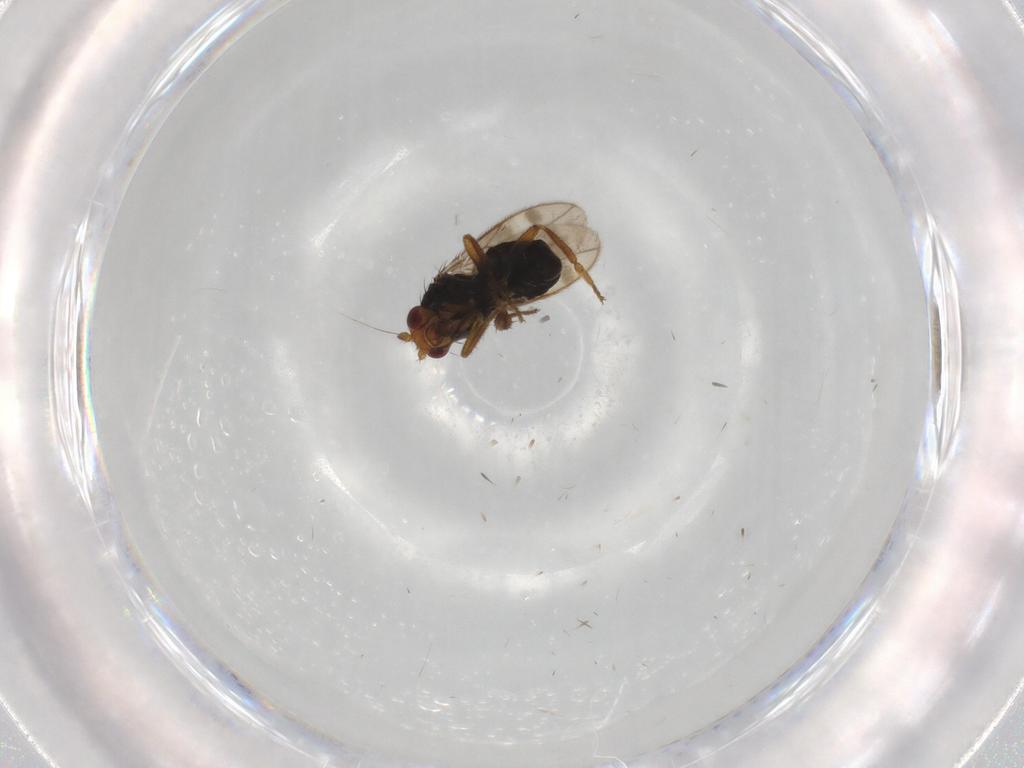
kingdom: Animalia
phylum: Arthropoda
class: Insecta
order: Diptera
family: Sphaeroceridae
